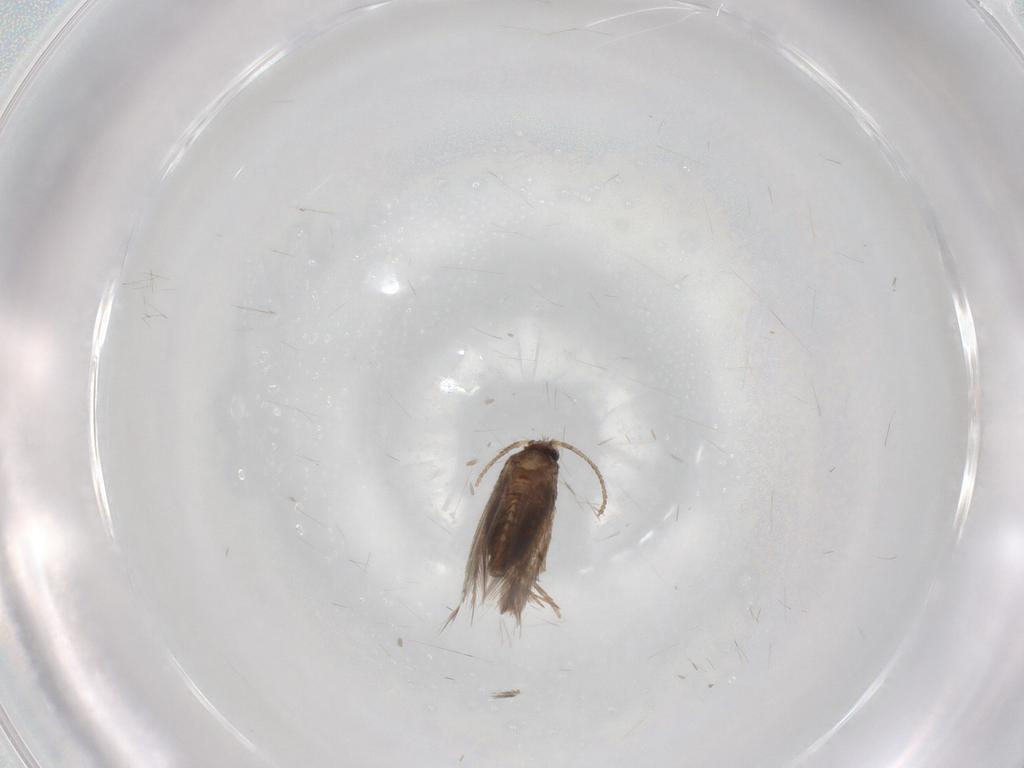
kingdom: Animalia
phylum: Arthropoda
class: Insecta
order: Lepidoptera
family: Nepticulidae
